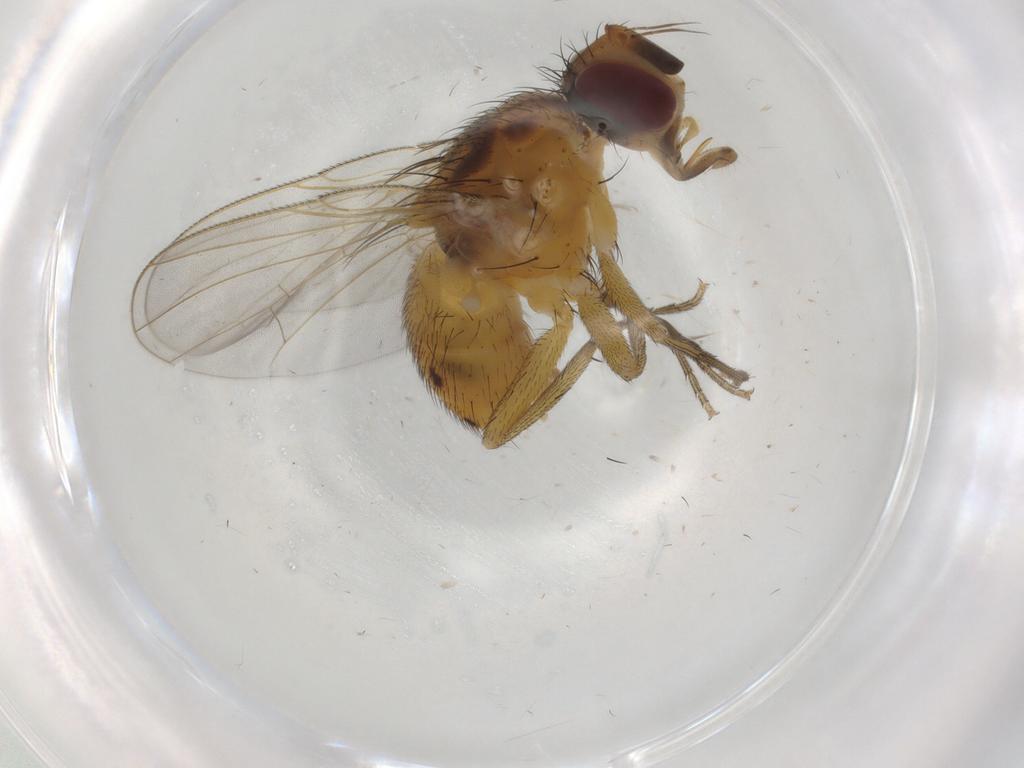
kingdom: Animalia
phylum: Arthropoda
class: Insecta
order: Diptera
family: Muscidae
